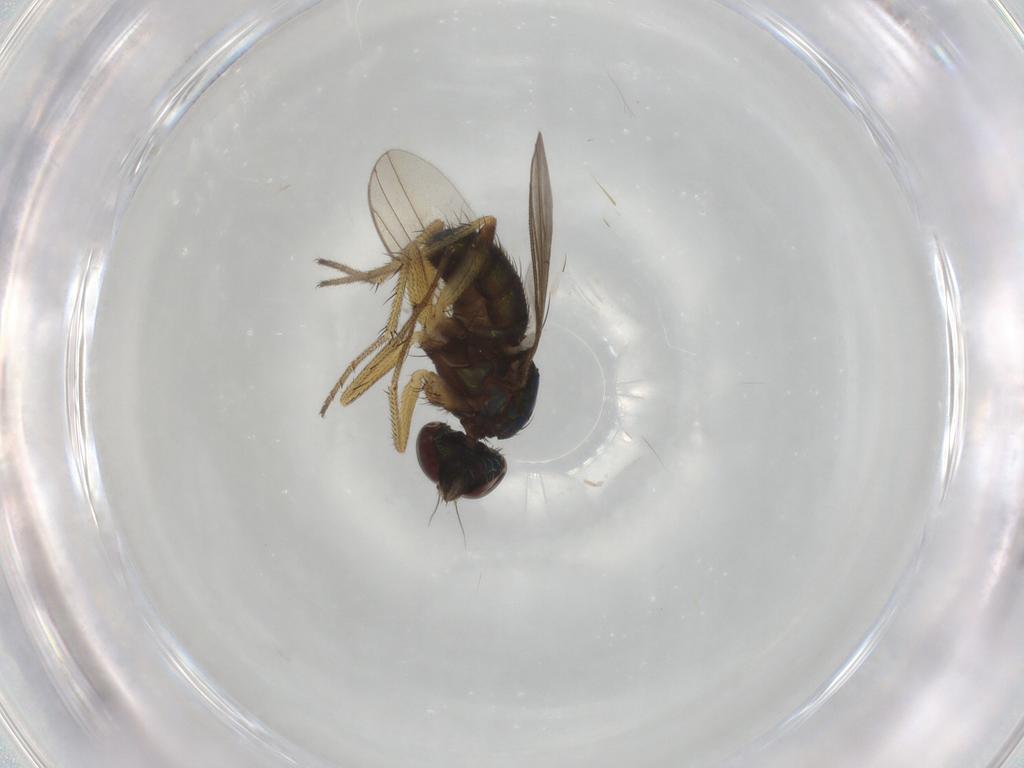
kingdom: Animalia
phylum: Arthropoda
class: Insecta
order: Diptera
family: Dolichopodidae
